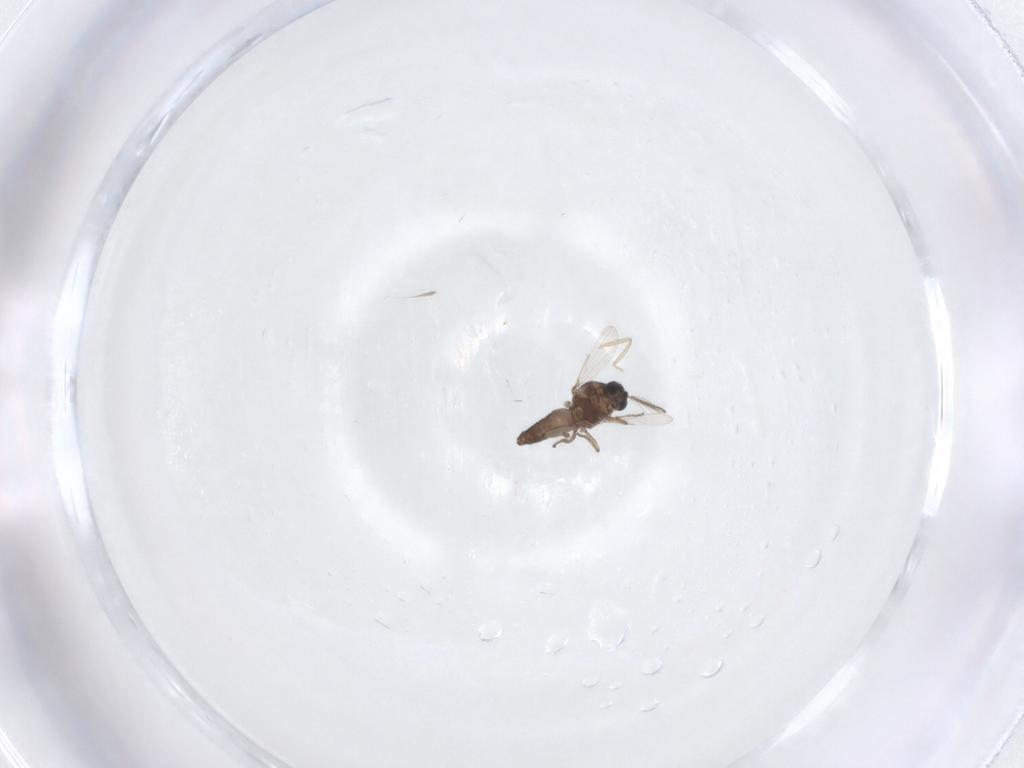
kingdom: Animalia
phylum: Arthropoda
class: Insecta
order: Diptera
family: Ceratopogonidae
